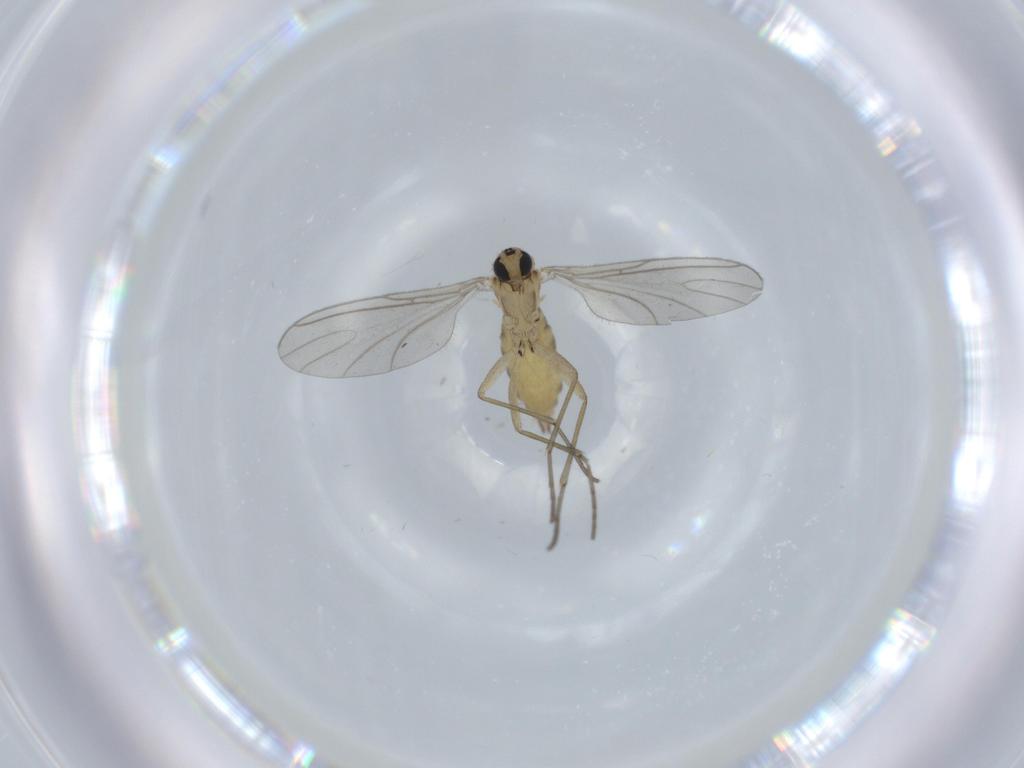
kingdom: Animalia
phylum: Arthropoda
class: Insecta
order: Diptera
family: Sciaridae
